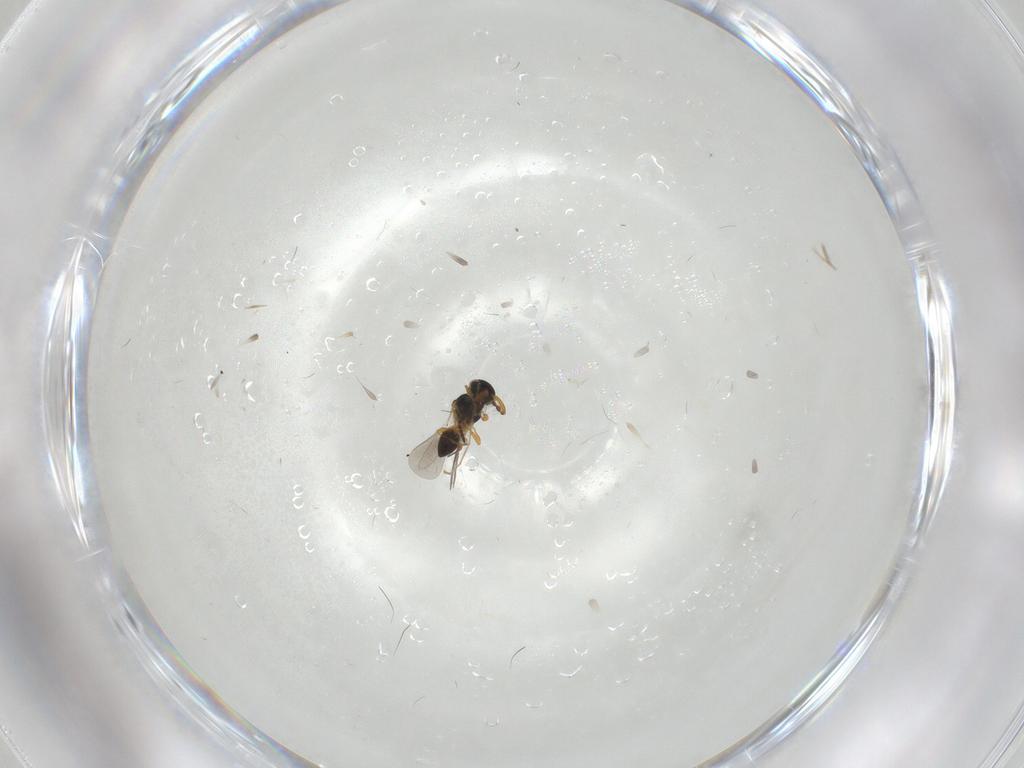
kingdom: Animalia
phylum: Arthropoda
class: Insecta
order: Hymenoptera
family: Platygastridae
